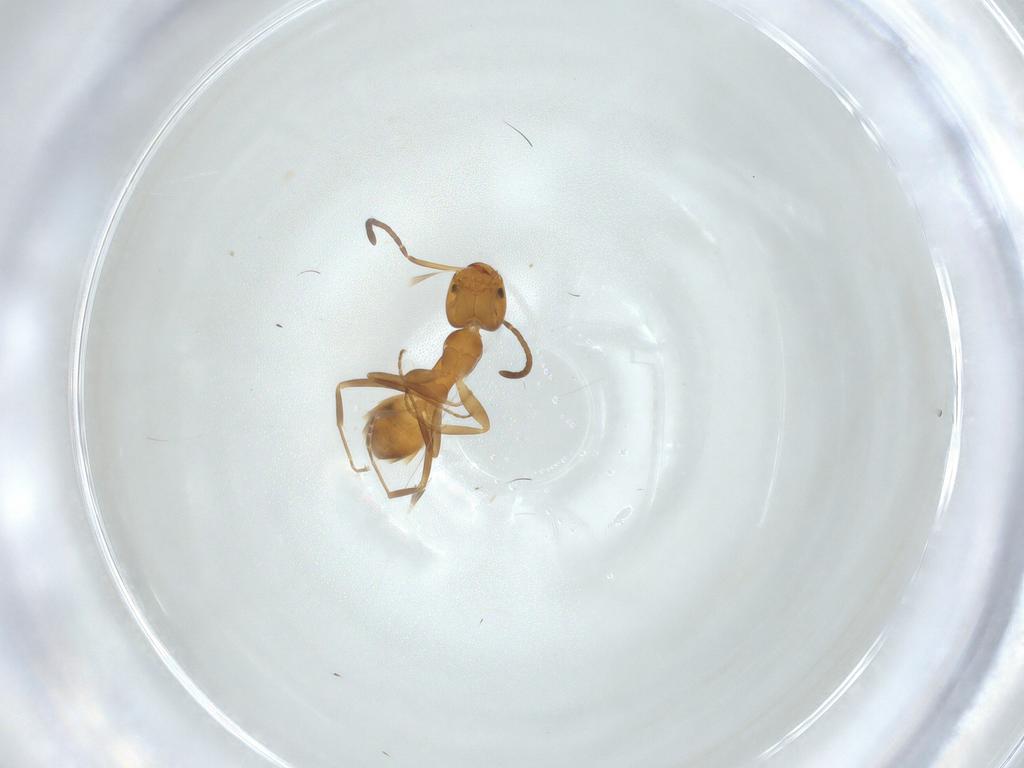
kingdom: Animalia
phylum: Arthropoda
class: Insecta
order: Hymenoptera
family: Formicidae
